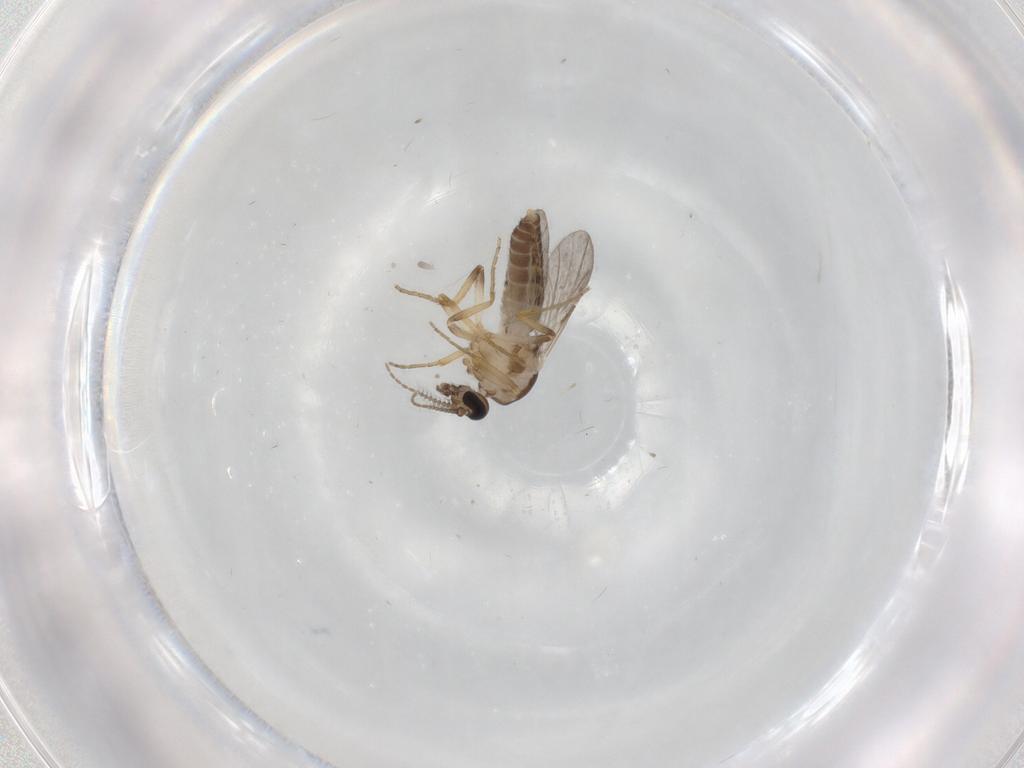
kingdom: Animalia
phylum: Arthropoda
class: Insecta
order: Diptera
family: Ceratopogonidae
